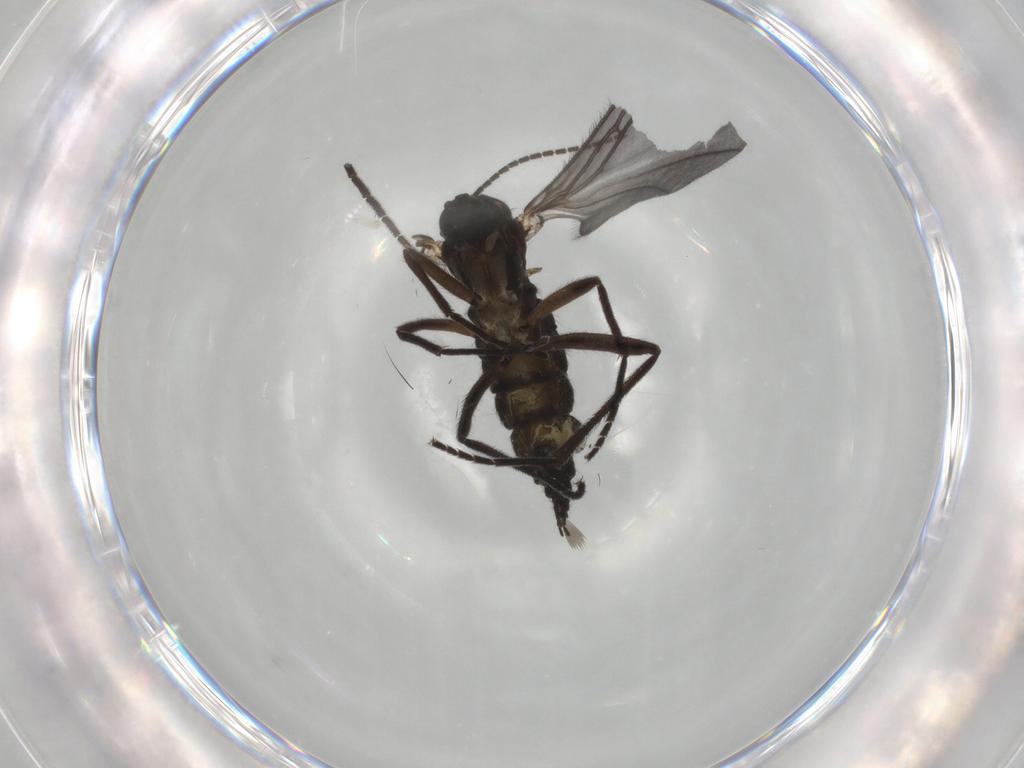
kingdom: Animalia
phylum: Arthropoda
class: Insecta
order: Diptera
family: Sciaridae
